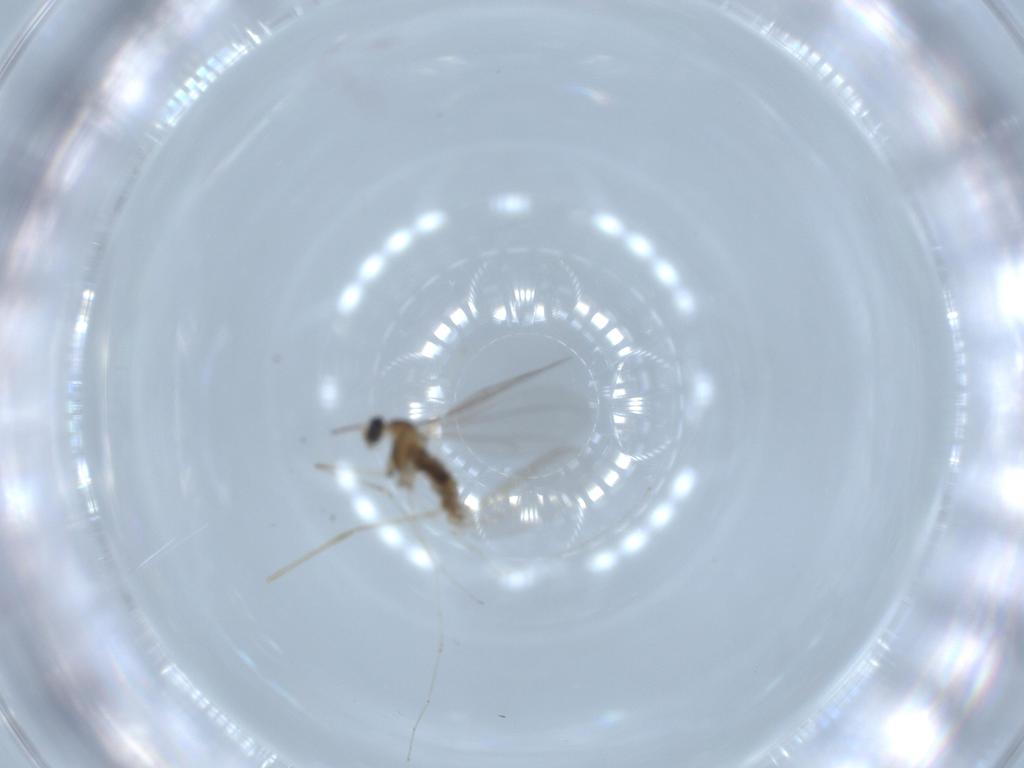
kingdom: Animalia
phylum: Arthropoda
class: Insecta
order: Diptera
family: Cecidomyiidae
